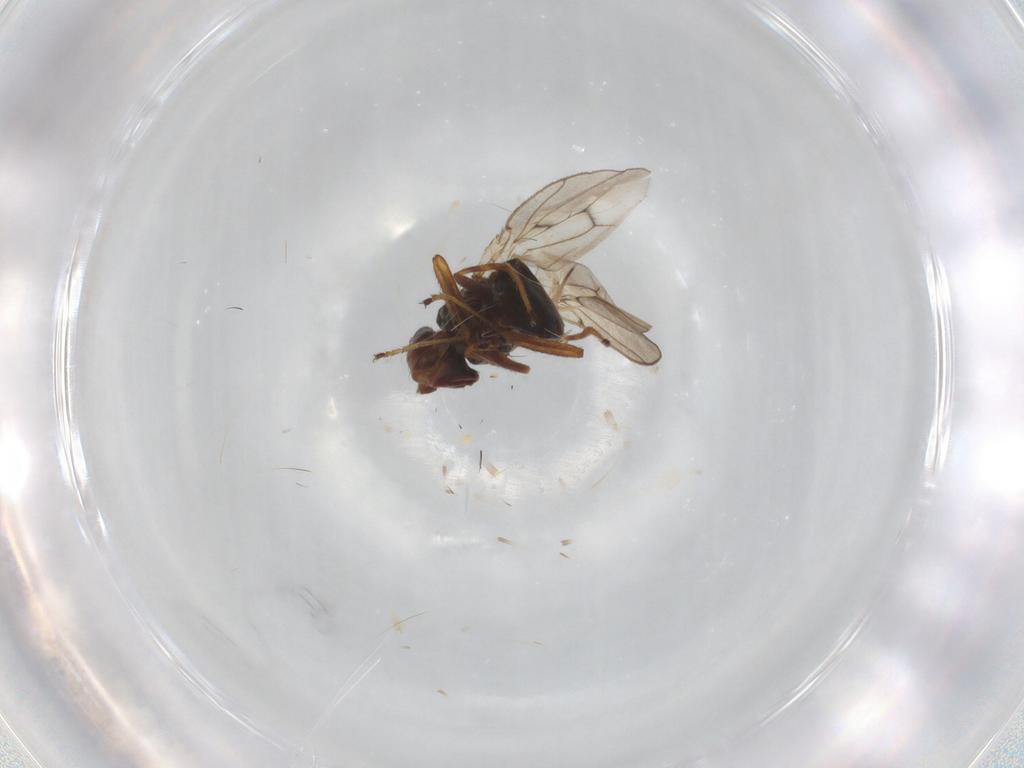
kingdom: Animalia
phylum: Arthropoda
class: Insecta
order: Diptera
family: Ceratopogonidae
